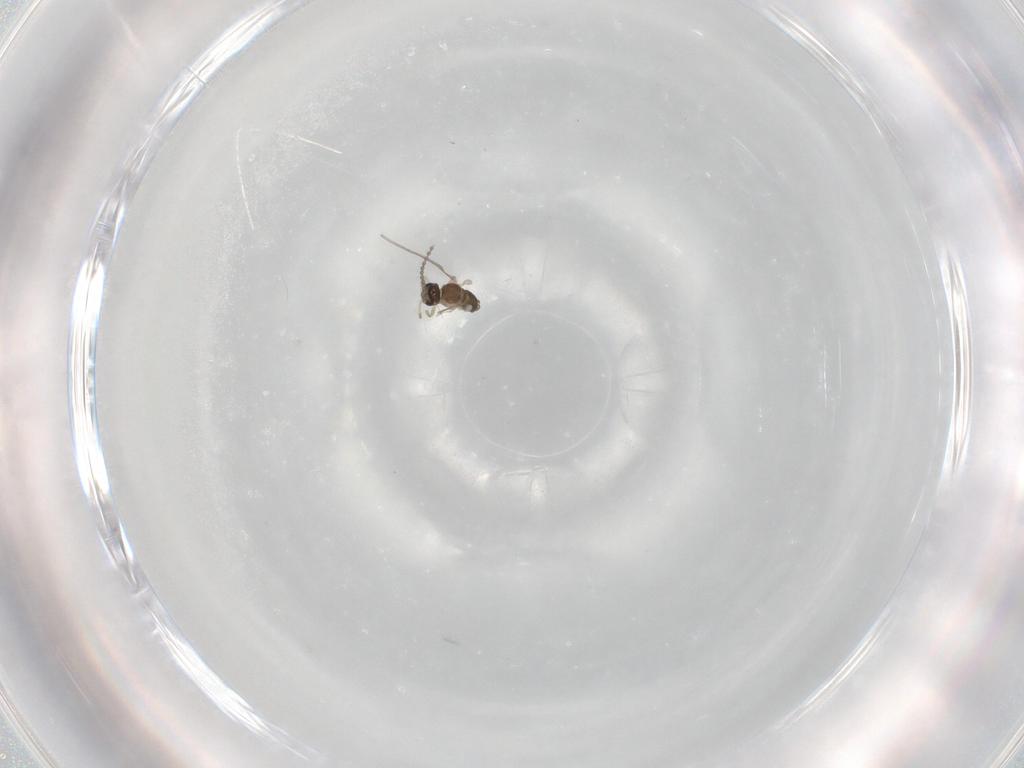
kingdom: Animalia
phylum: Arthropoda
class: Insecta
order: Diptera
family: Cecidomyiidae
